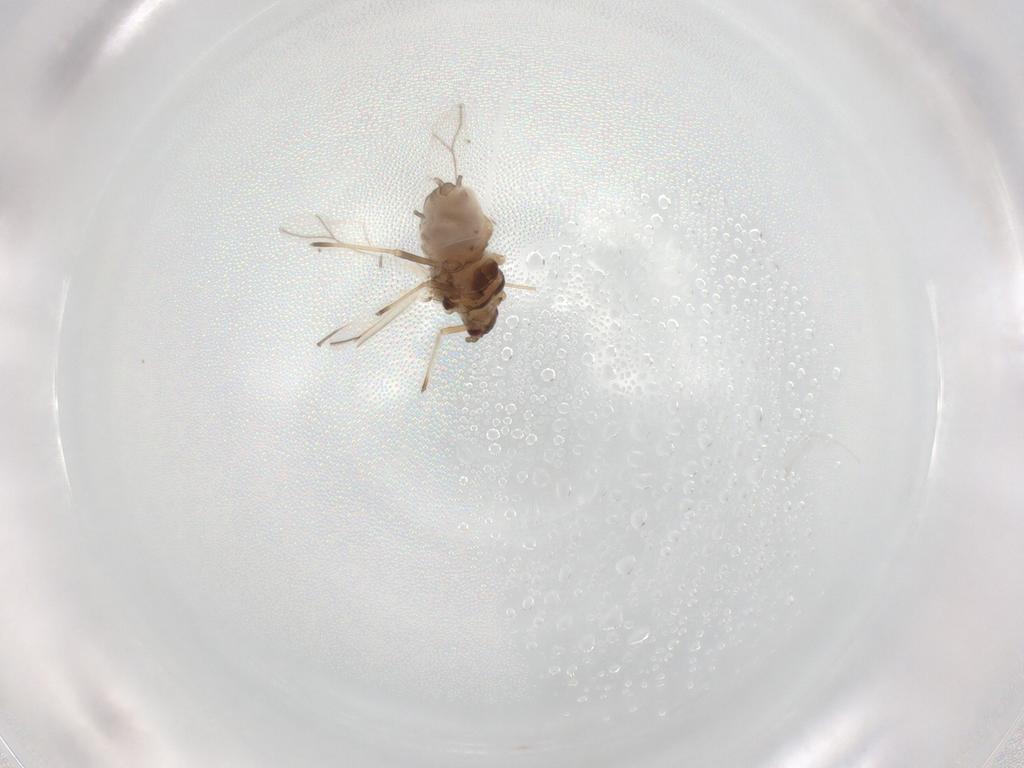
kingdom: Animalia
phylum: Arthropoda
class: Insecta
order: Hemiptera
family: Aphididae
